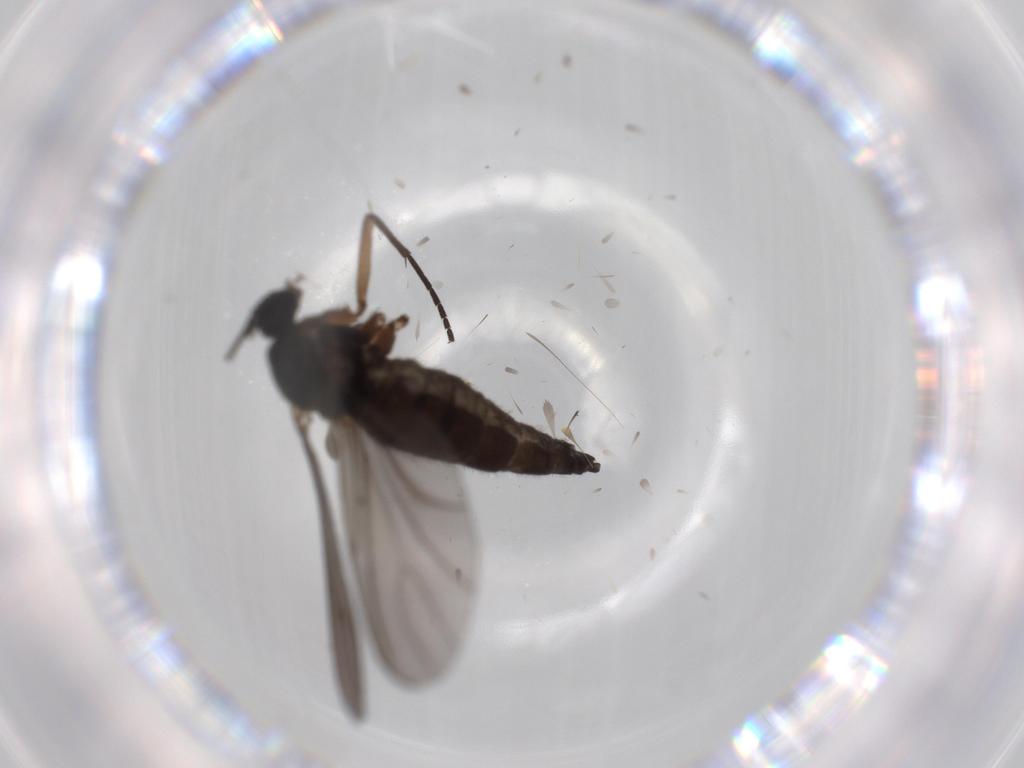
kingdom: Animalia
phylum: Arthropoda
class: Insecta
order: Diptera
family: Sciaridae
